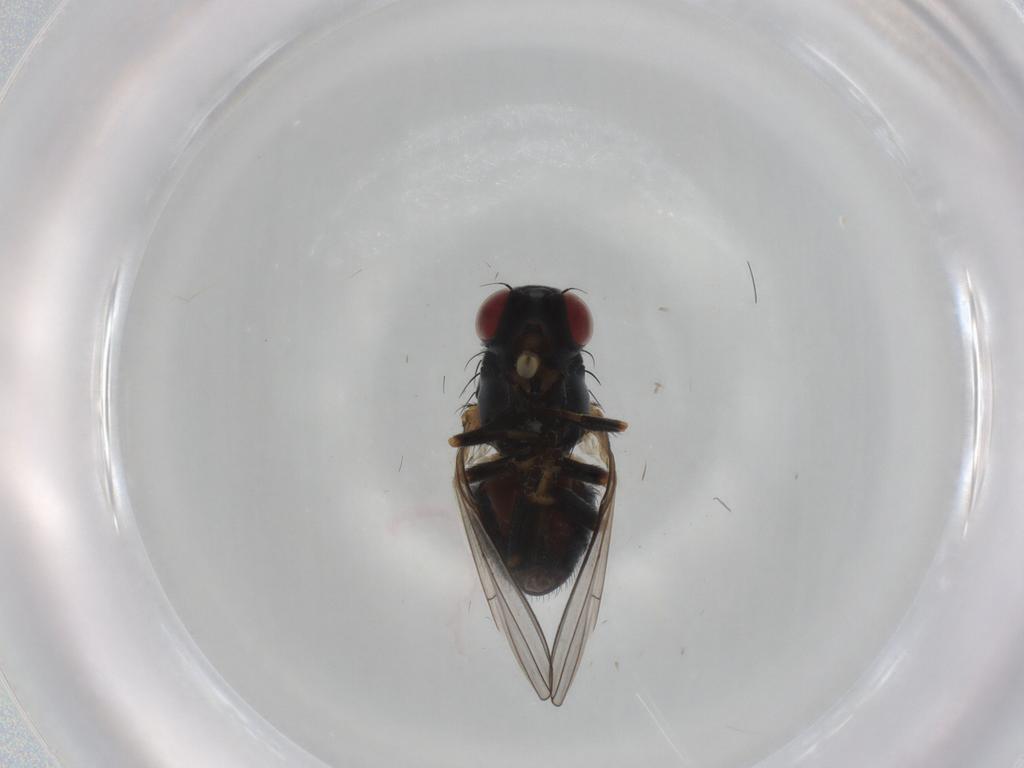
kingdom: Animalia
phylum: Arthropoda
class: Insecta
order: Diptera
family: Chamaemyiidae
